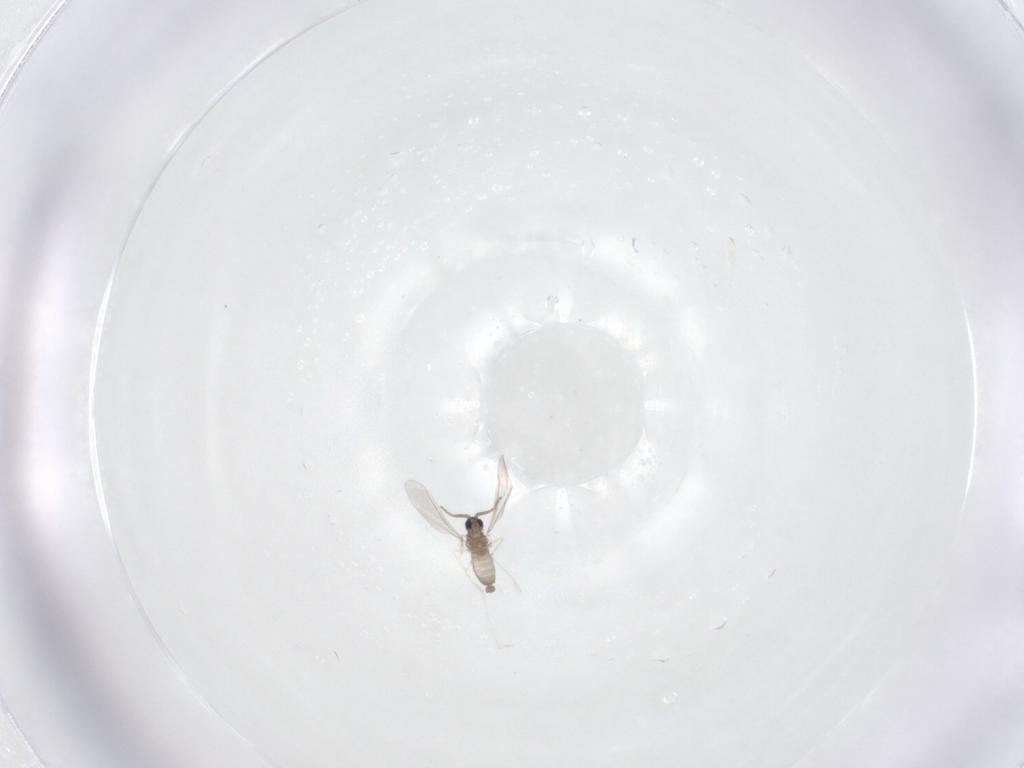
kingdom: Animalia
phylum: Arthropoda
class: Insecta
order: Diptera
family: Cecidomyiidae
